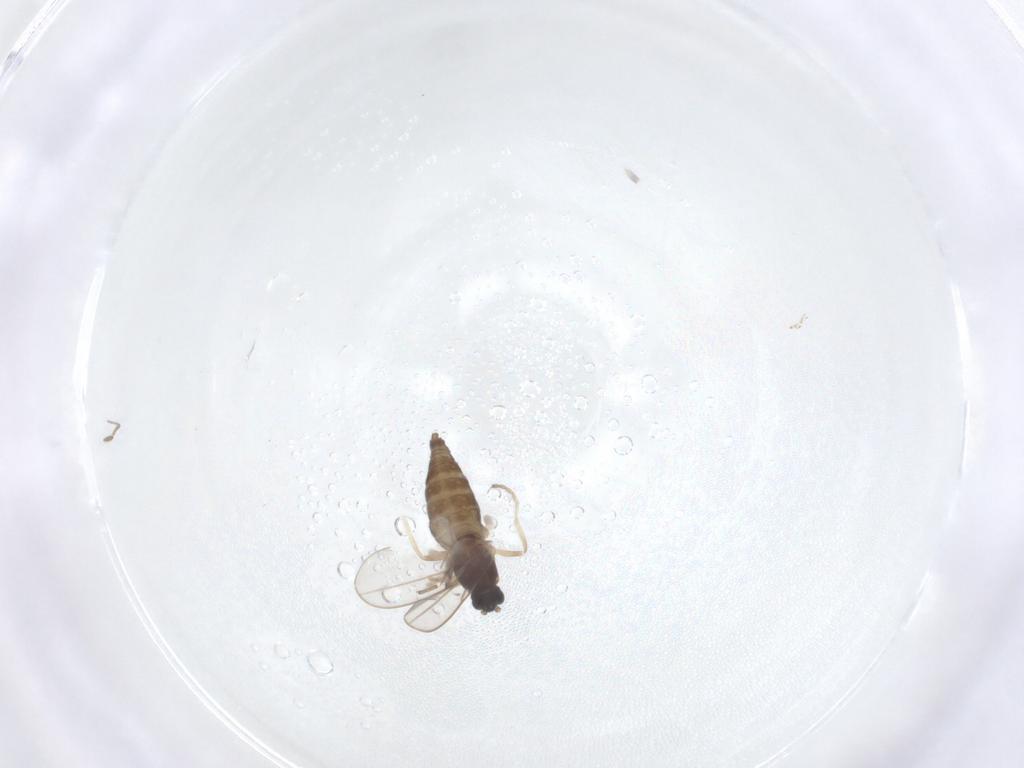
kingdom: Animalia
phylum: Arthropoda
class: Insecta
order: Diptera
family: Cecidomyiidae
